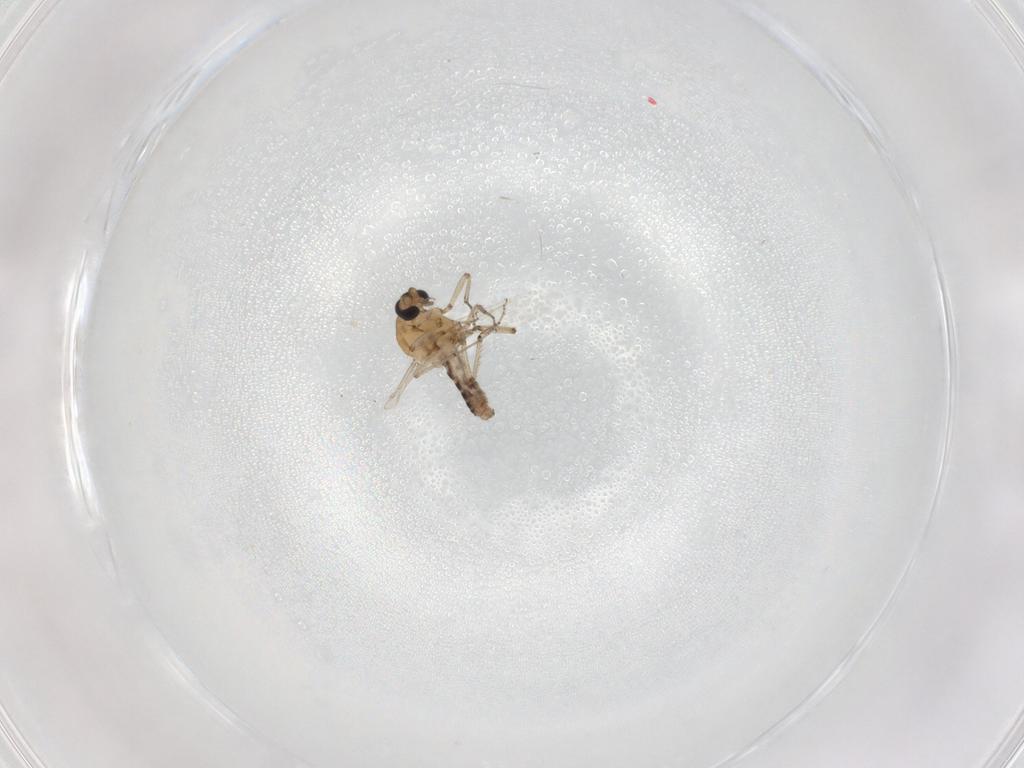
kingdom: Animalia
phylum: Arthropoda
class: Insecta
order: Diptera
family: Ceratopogonidae
